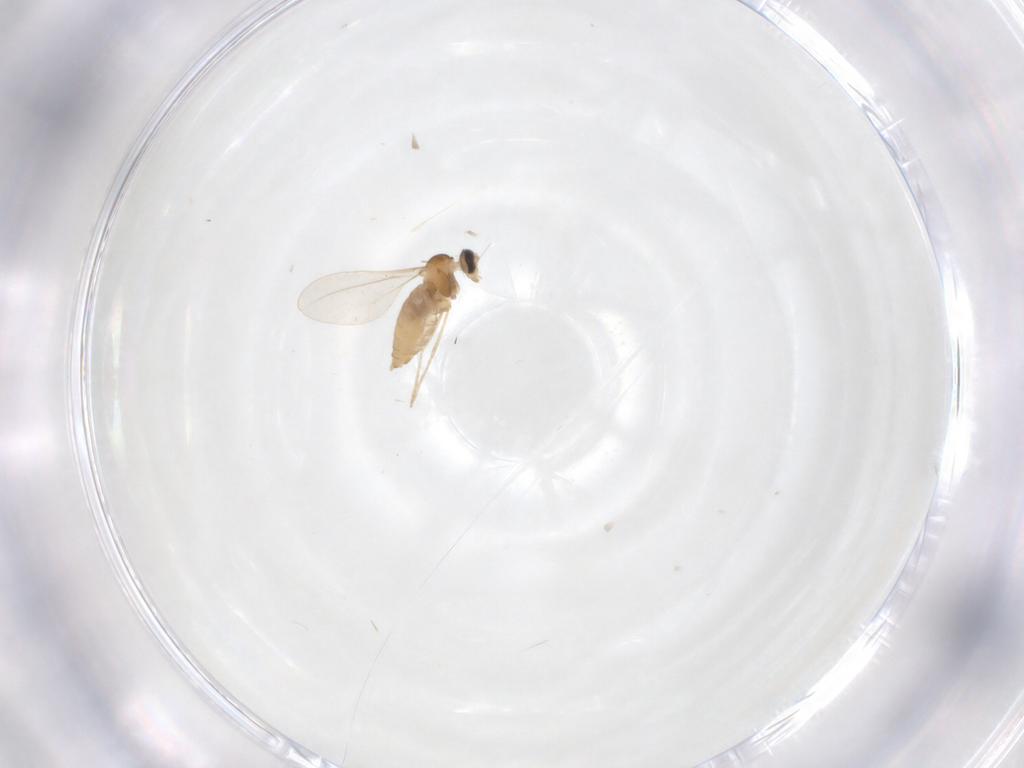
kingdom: Animalia
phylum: Arthropoda
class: Insecta
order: Diptera
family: Cecidomyiidae
